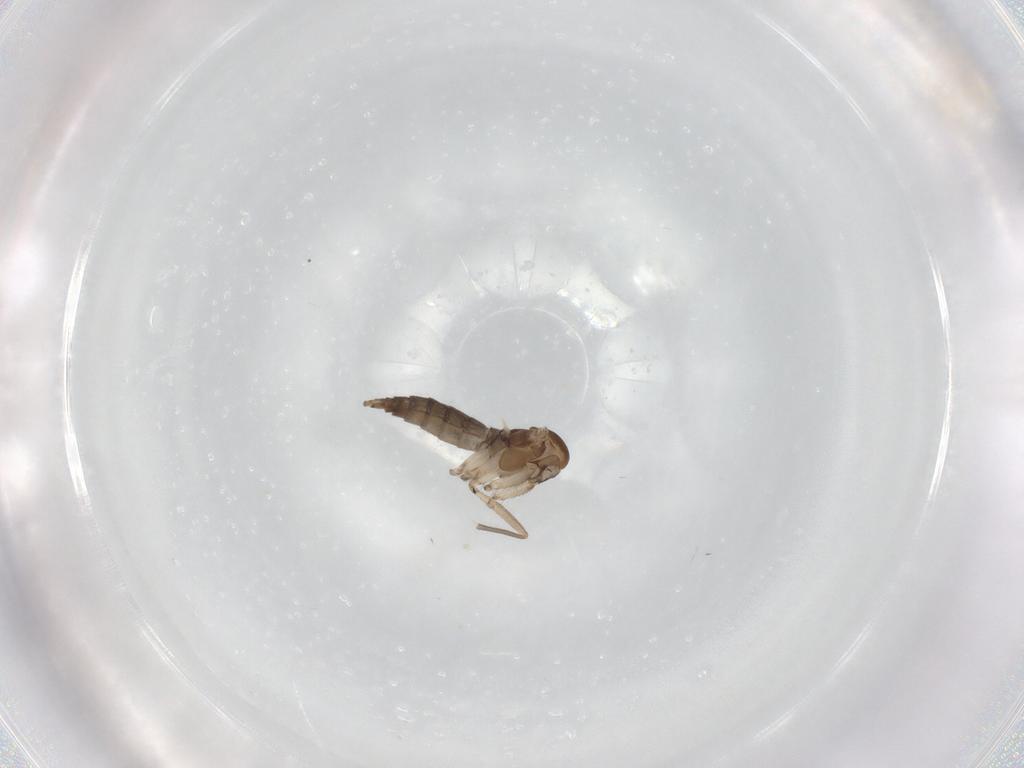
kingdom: Animalia
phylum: Arthropoda
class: Insecta
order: Diptera
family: Sciaridae
